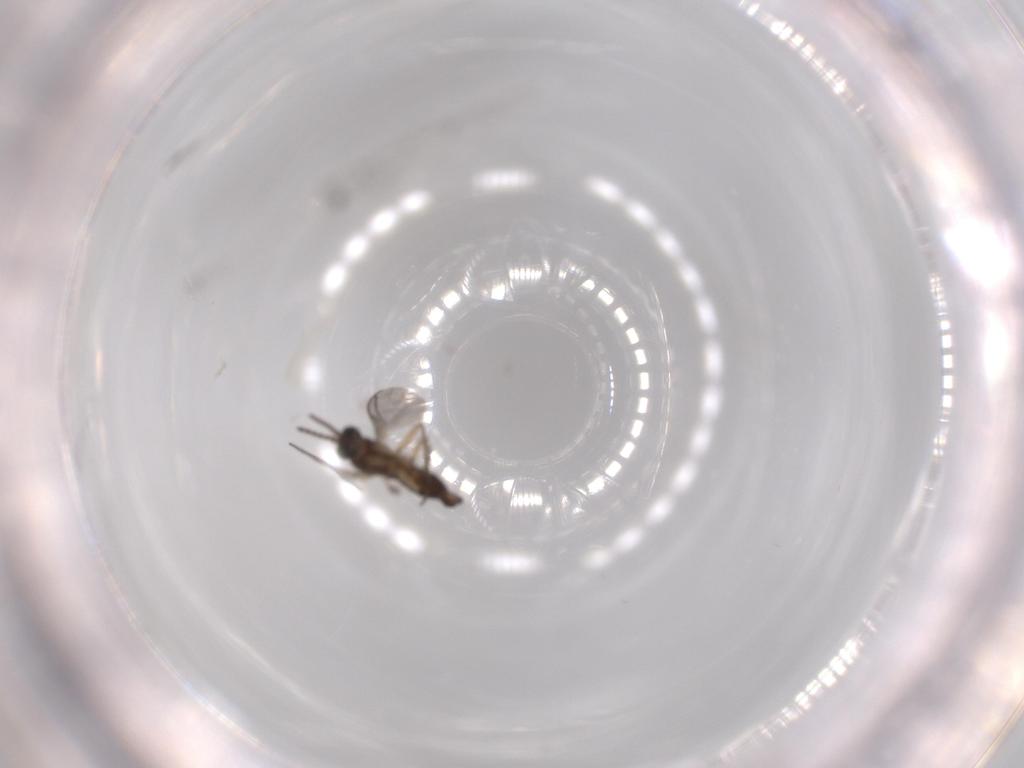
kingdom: Animalia
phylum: Arthropoda
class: Insecta
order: Diptera
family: Sciaridae
